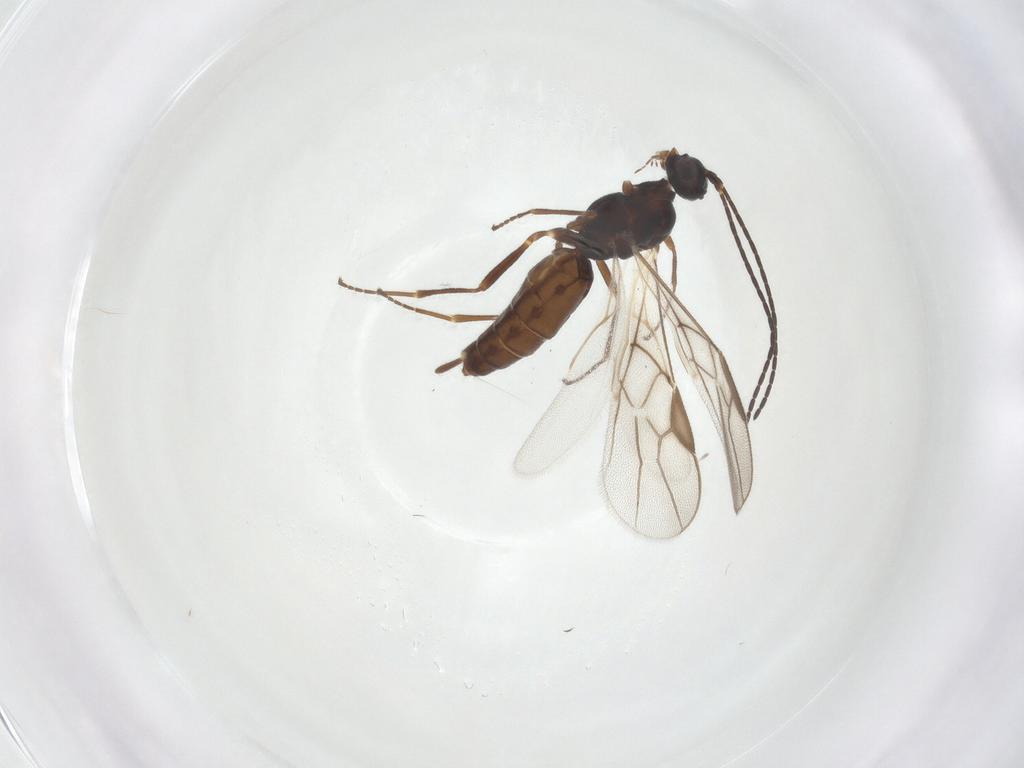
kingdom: Animalia
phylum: Arthropoda
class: Insecta
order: Hymenoptera
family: Braconidae
